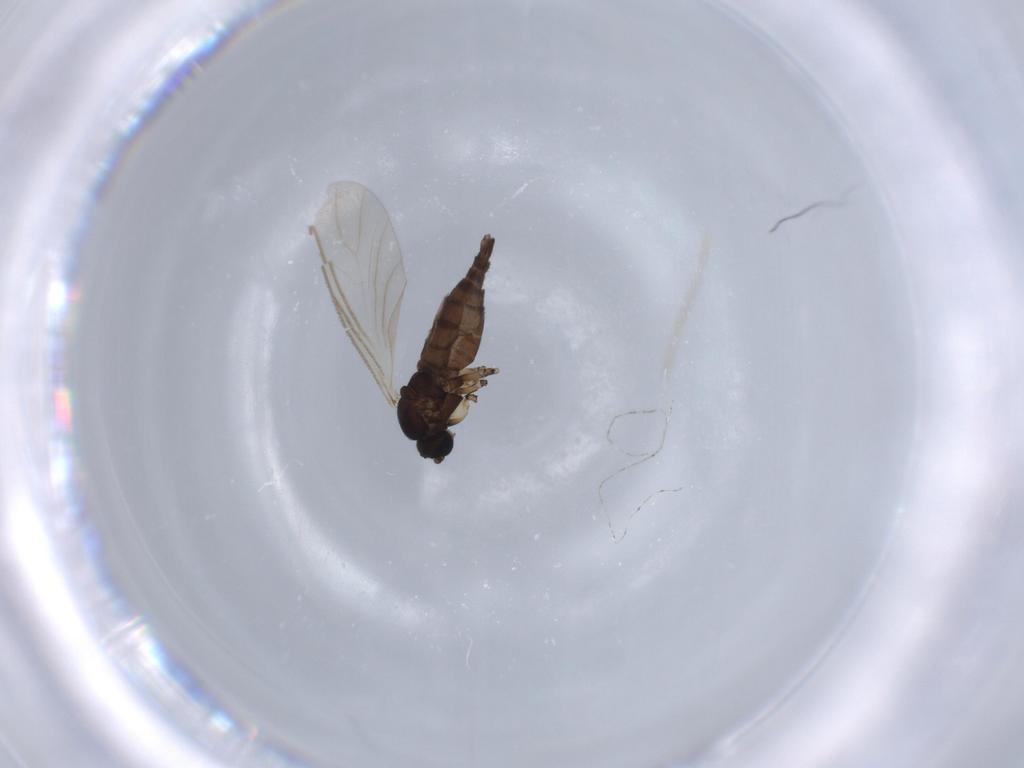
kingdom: Animalia
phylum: Arthropoda
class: Insecta
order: Diptera
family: Syrphidae
